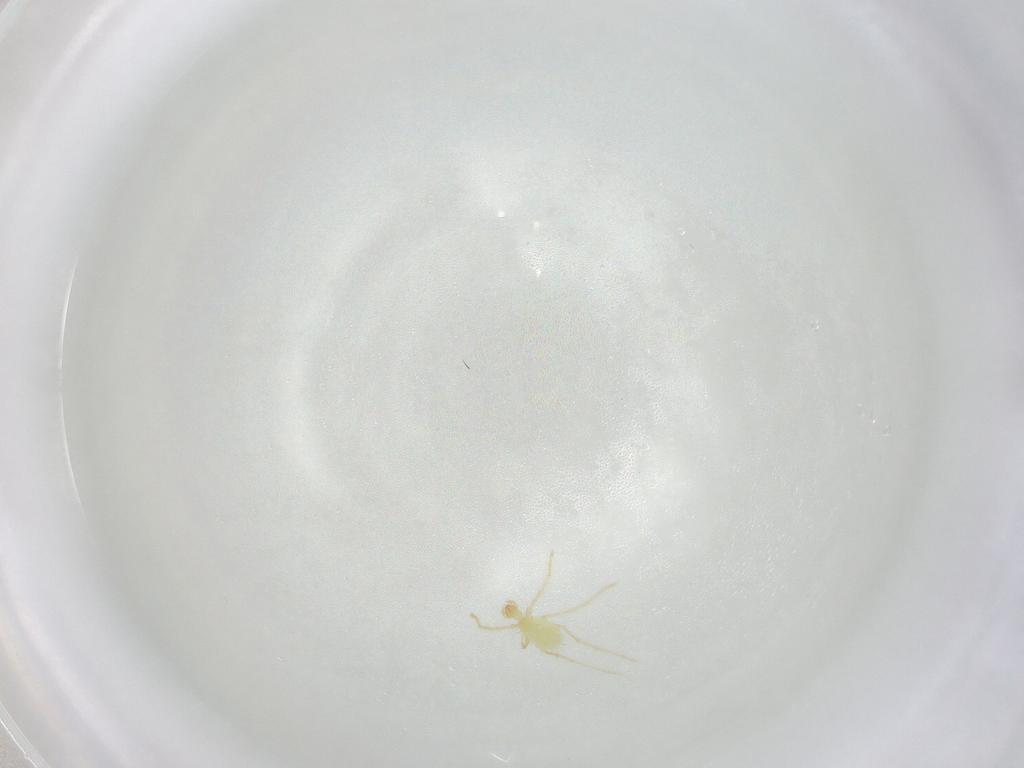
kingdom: Animalia
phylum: Arthropoda
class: Arachnida
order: Trombidiformes
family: Erythraeidae
